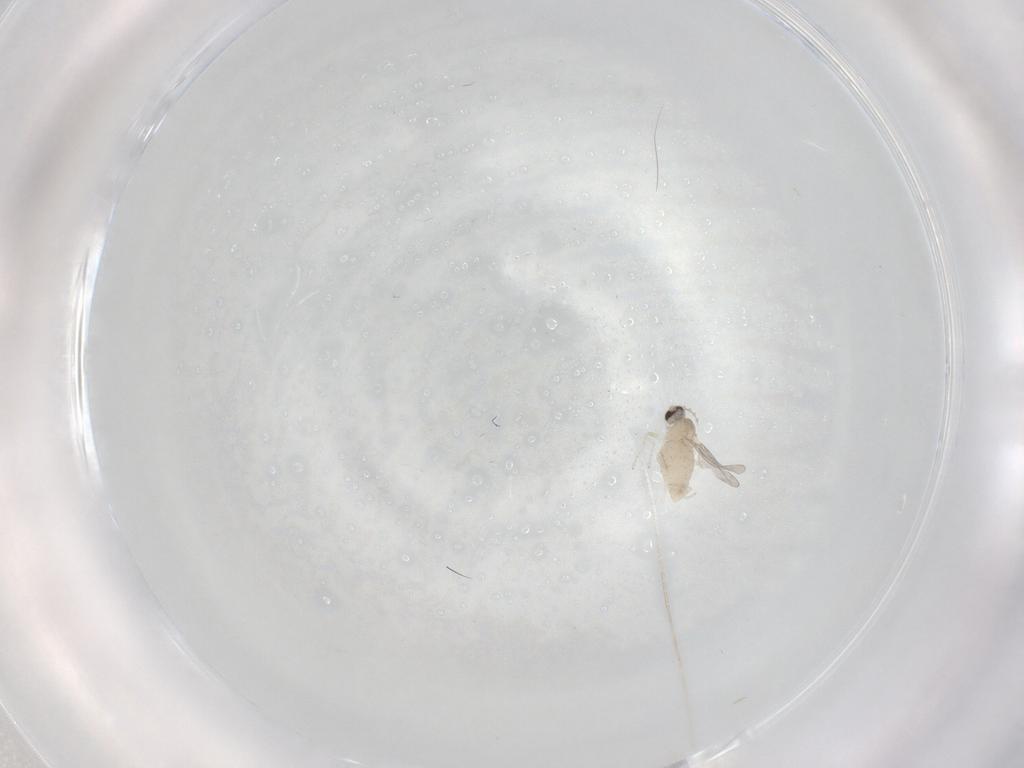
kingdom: Animalia
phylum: Arthropoda
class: Insecta
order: Diptera
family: Cecidomyiidae
